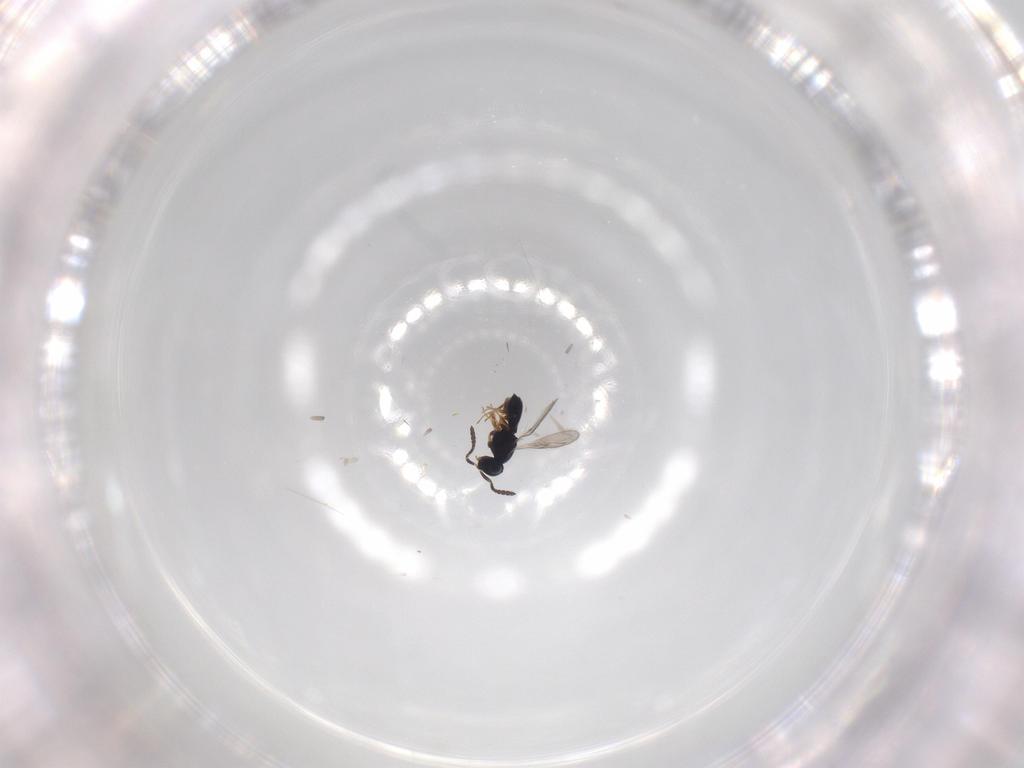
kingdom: Animalia
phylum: Arthropoda
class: Insecta
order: Hymenoptera
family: Scelionidae
